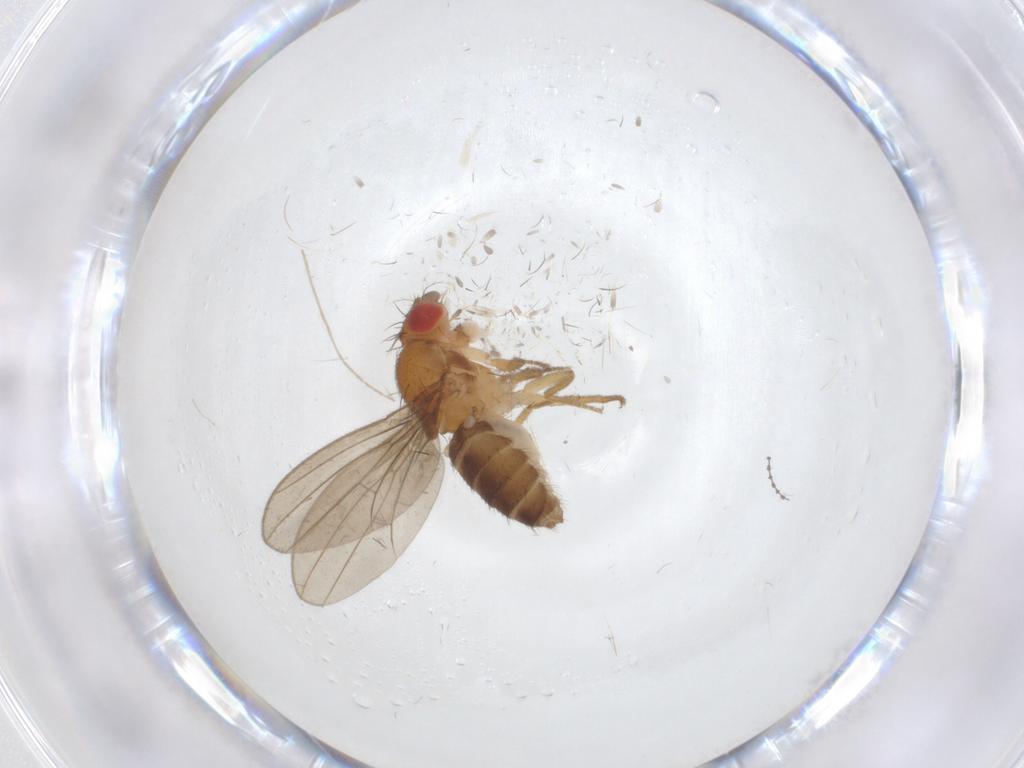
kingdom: Animalia
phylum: Arthropoda
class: Insecta
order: Diptera
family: Drosophilidae
